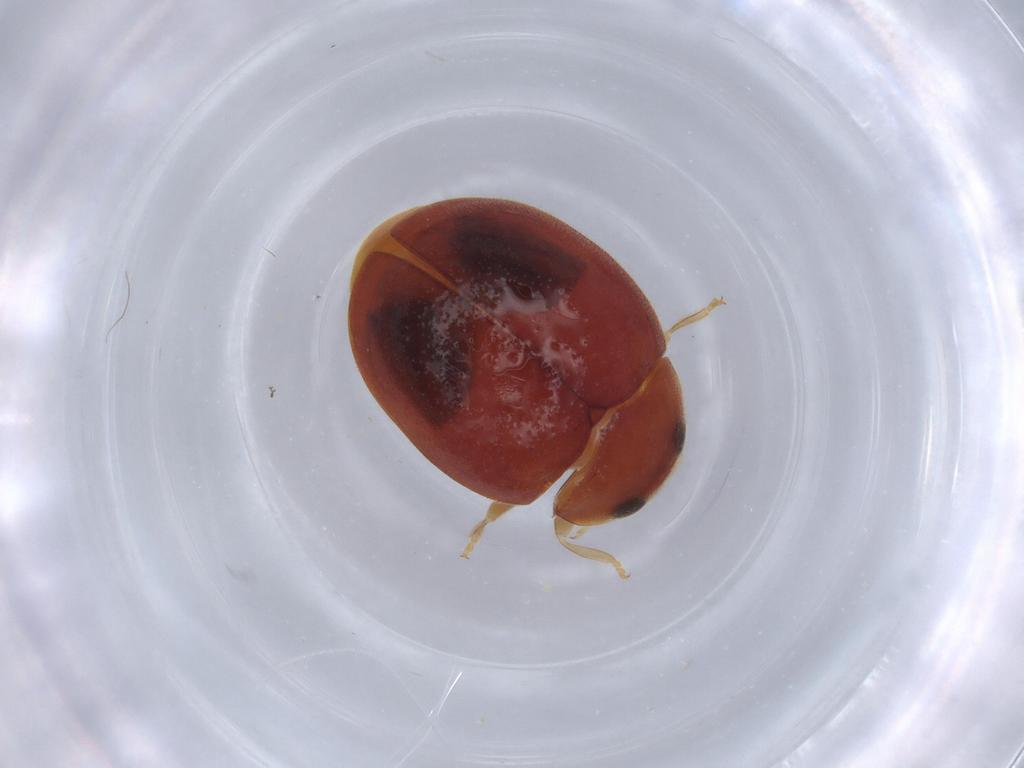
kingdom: Animalia
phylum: Arthropoda
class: Insecta
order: Coleoptera
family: Coccinellidae
